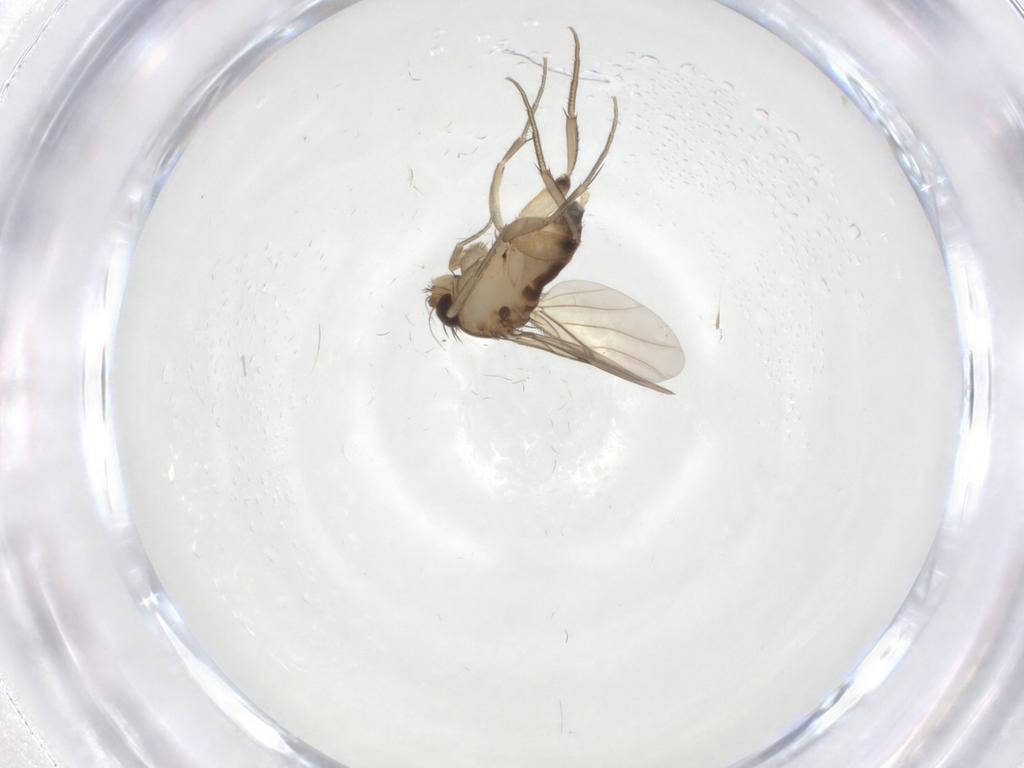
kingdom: Animalia
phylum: Arthropoda
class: Insecta
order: Diptera
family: Phoridae
